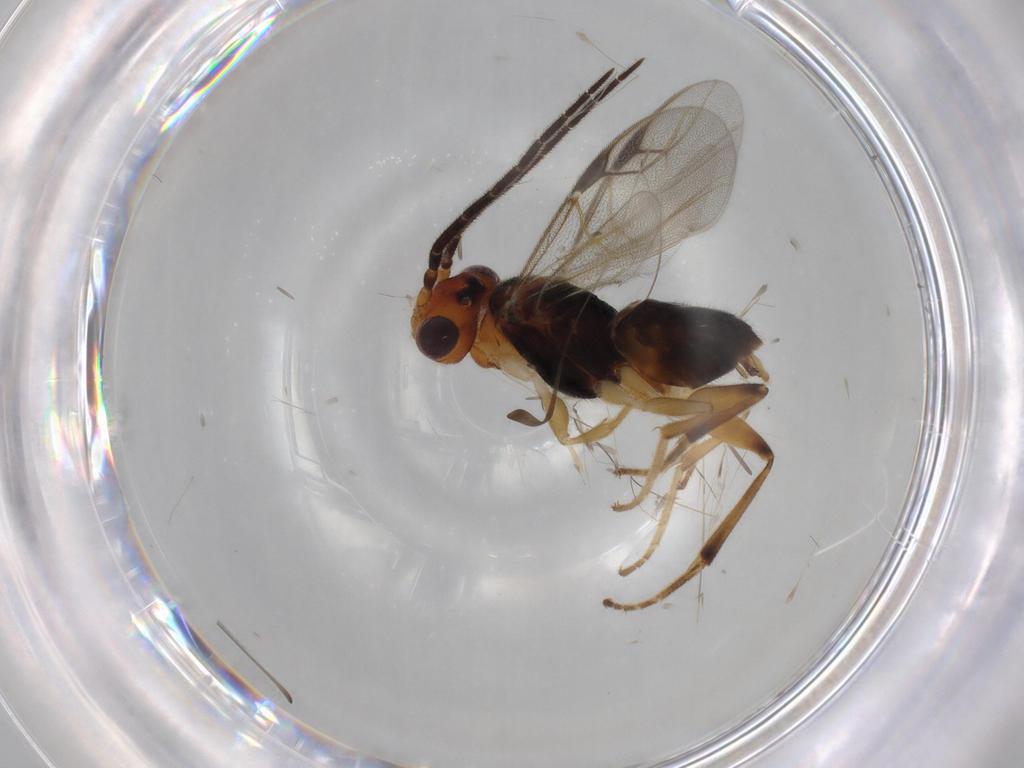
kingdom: Animalia
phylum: Arthropoda
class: Insecta
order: Hymenoptera
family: Dryinidae
